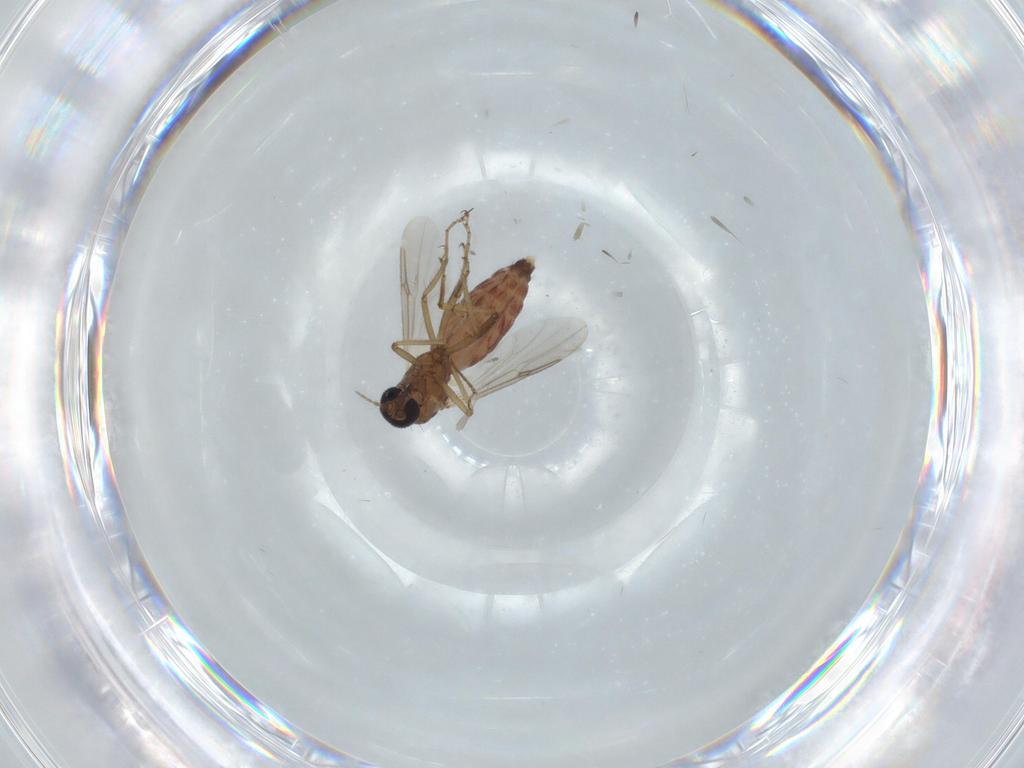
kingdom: Animalia
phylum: Arthropoda
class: Insecta
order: Diptera
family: Ceratopogonidae
